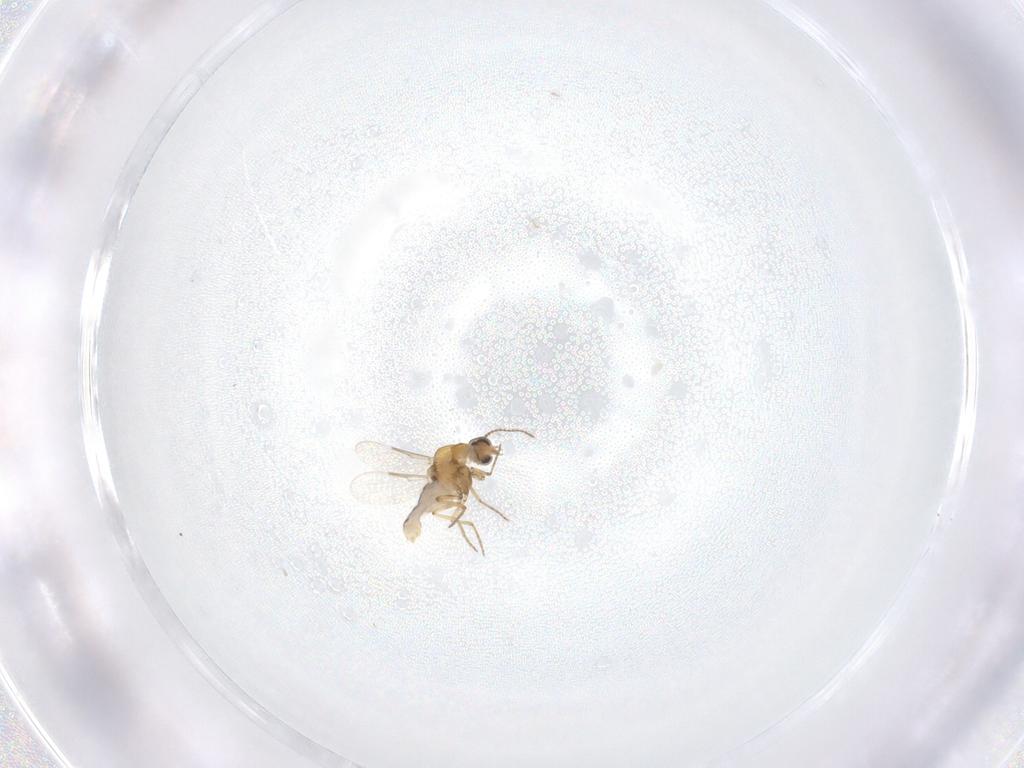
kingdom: Animalia
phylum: Arthropoda
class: Insecta
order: Diptera
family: Ceratopogonidae
